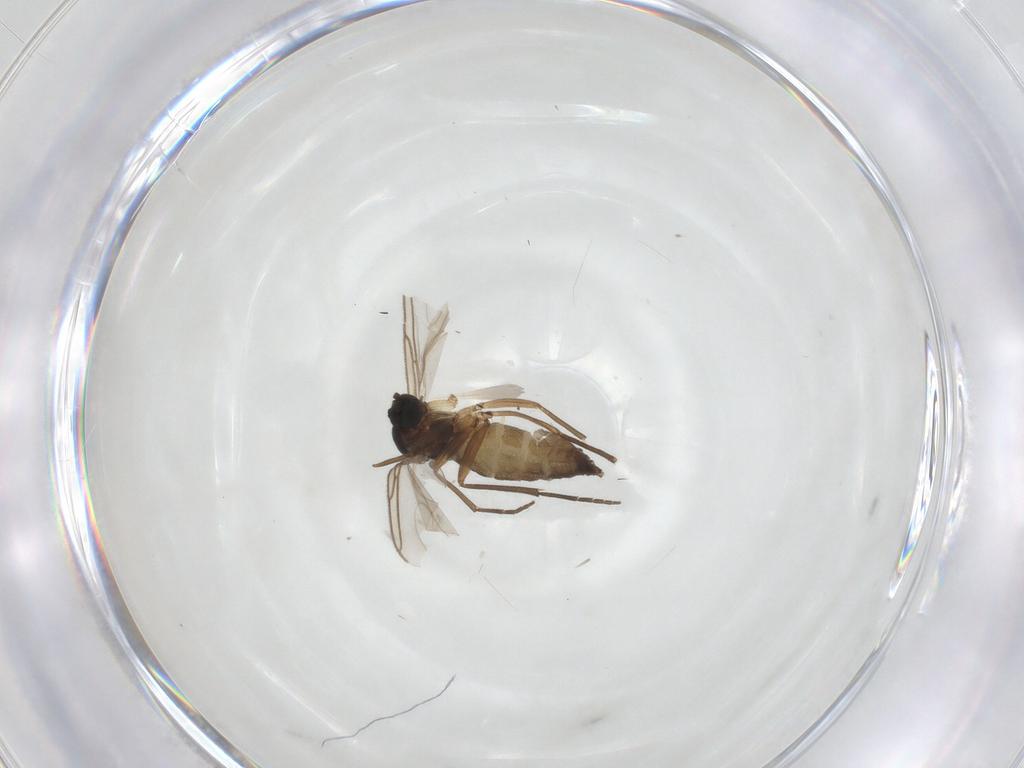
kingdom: Animalia
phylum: Arthropoda
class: Insecta
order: Diptera
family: Sciaridae
